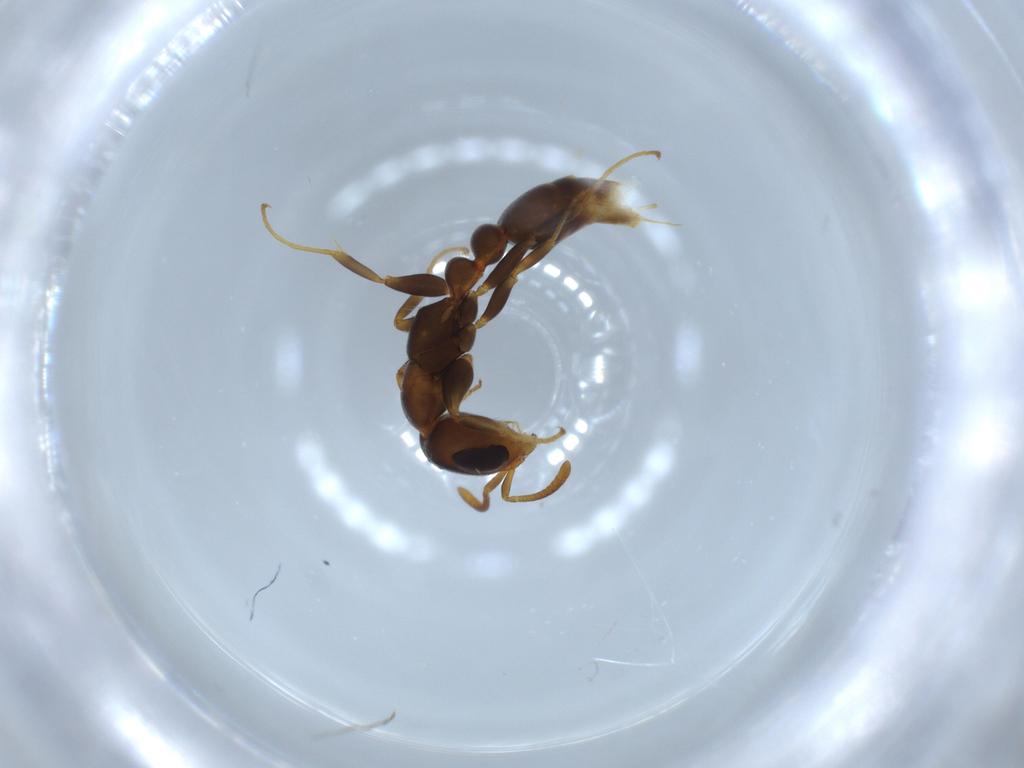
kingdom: Animalia
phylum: Arthropoda
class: Insecta
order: Hymenoptera
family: Formicidae
